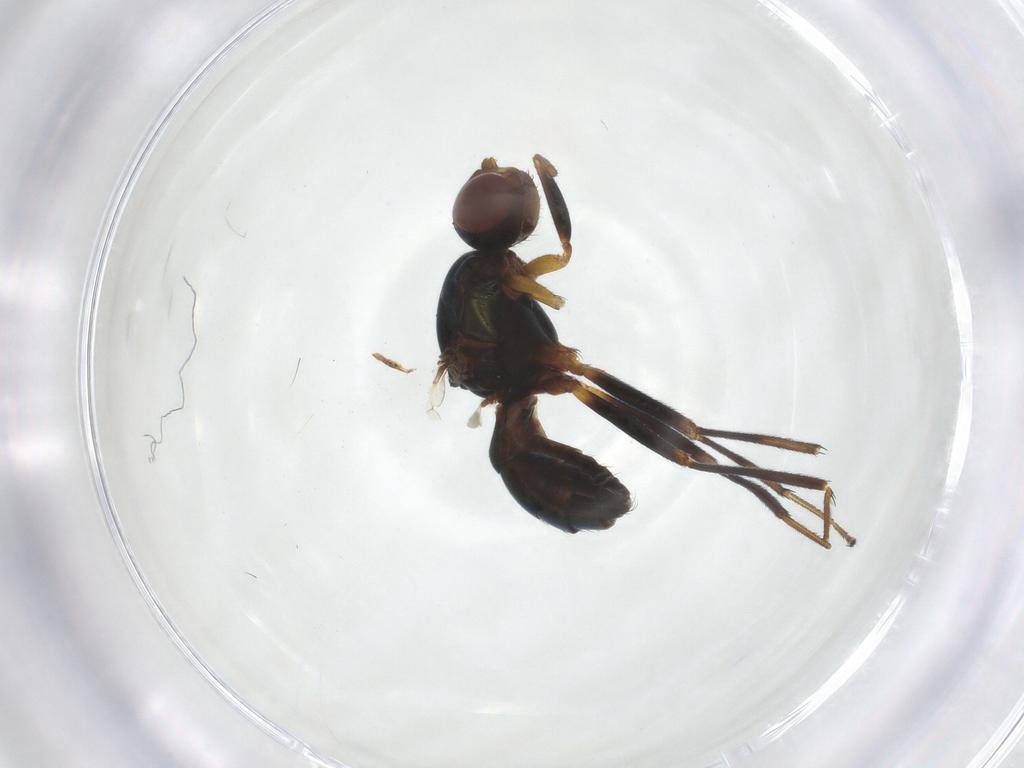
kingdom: Animalia
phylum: Arthropoda
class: Insecta
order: Diptera
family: Sepsidae
